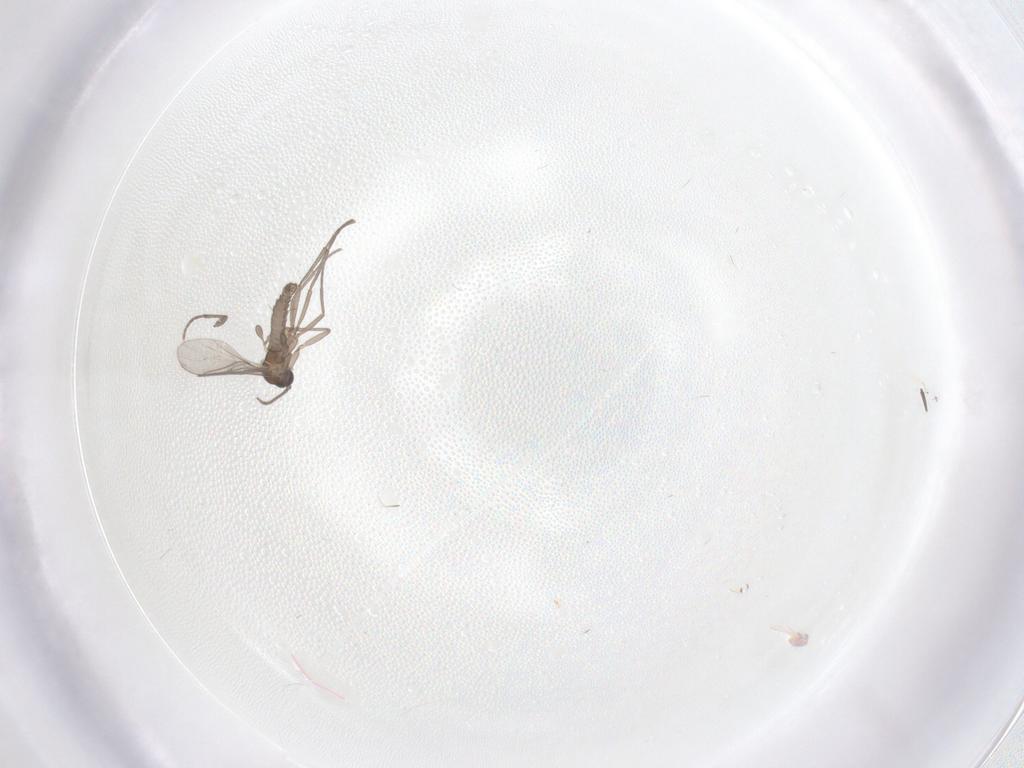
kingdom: Animalia
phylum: Arthropoda
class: Insecta
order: Diptera
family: Sciaridae
